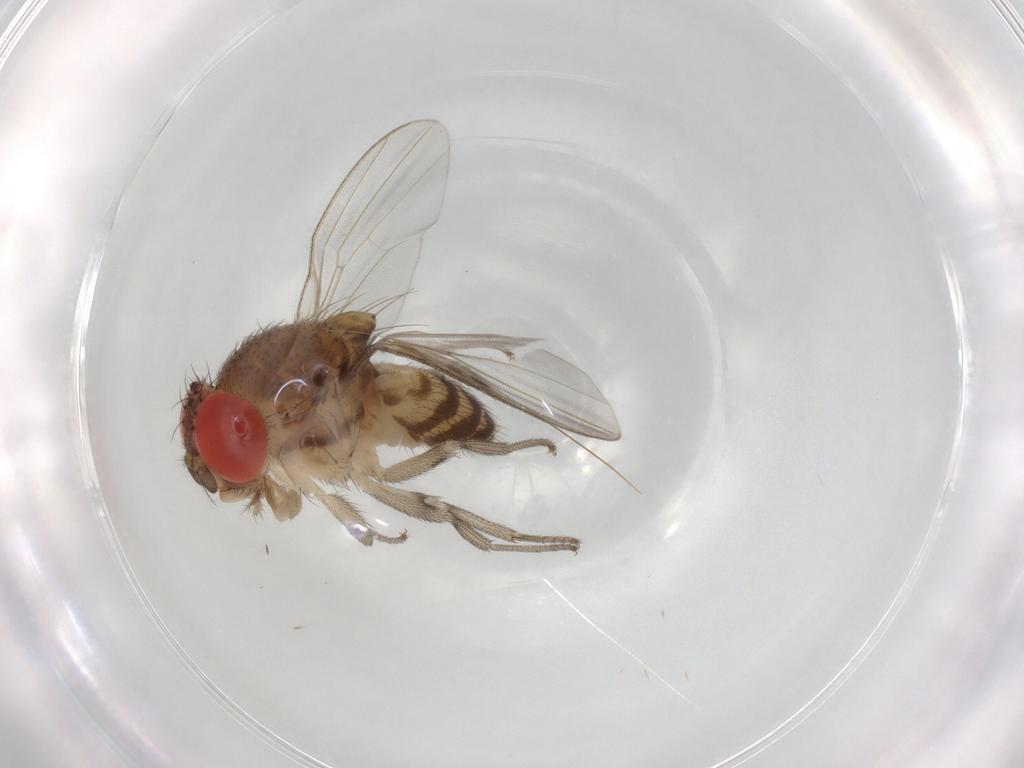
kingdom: Animalia
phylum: Arthropoda
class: Insecta
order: Diptera
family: Drosophilidae
